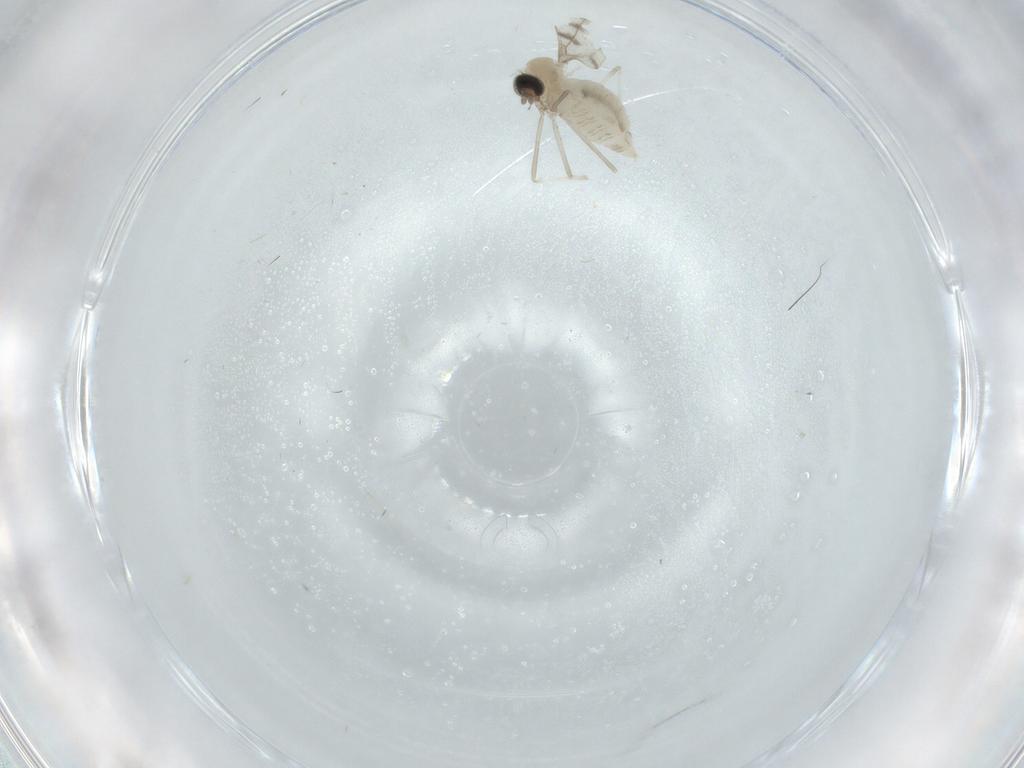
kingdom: Animalia
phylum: Arthropoda
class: Insecta
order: Diptera
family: Cecidomyiidae
